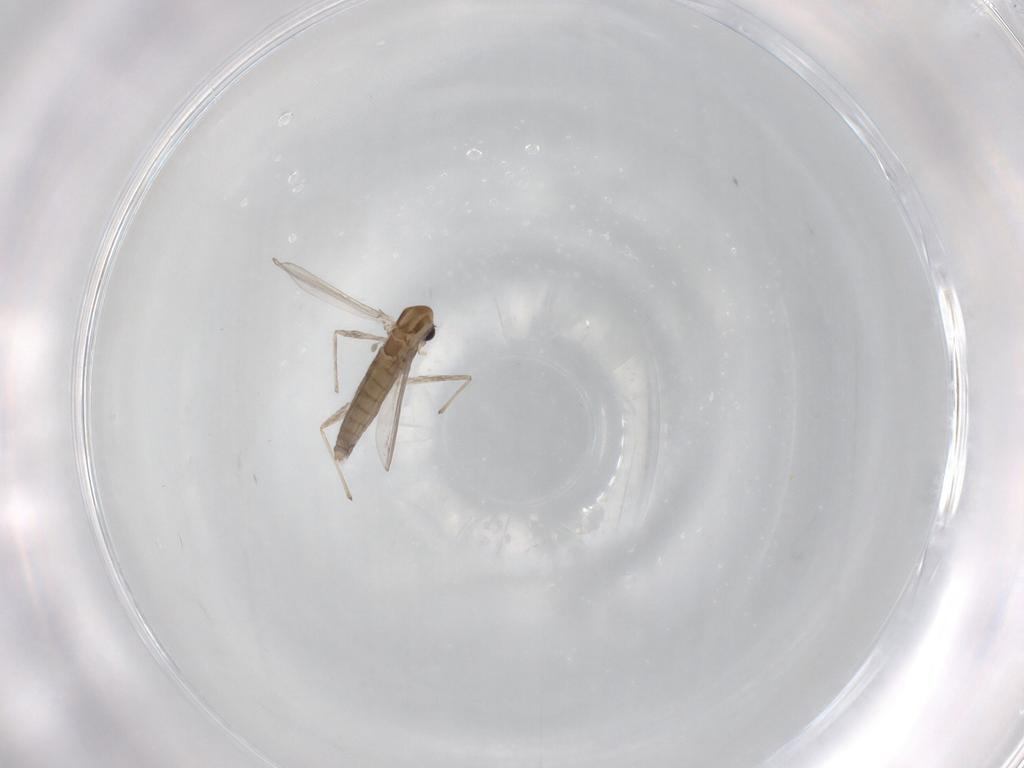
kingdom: Animalia
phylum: Arthropoda
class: Insecta
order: Diptera
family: Chironomidae
